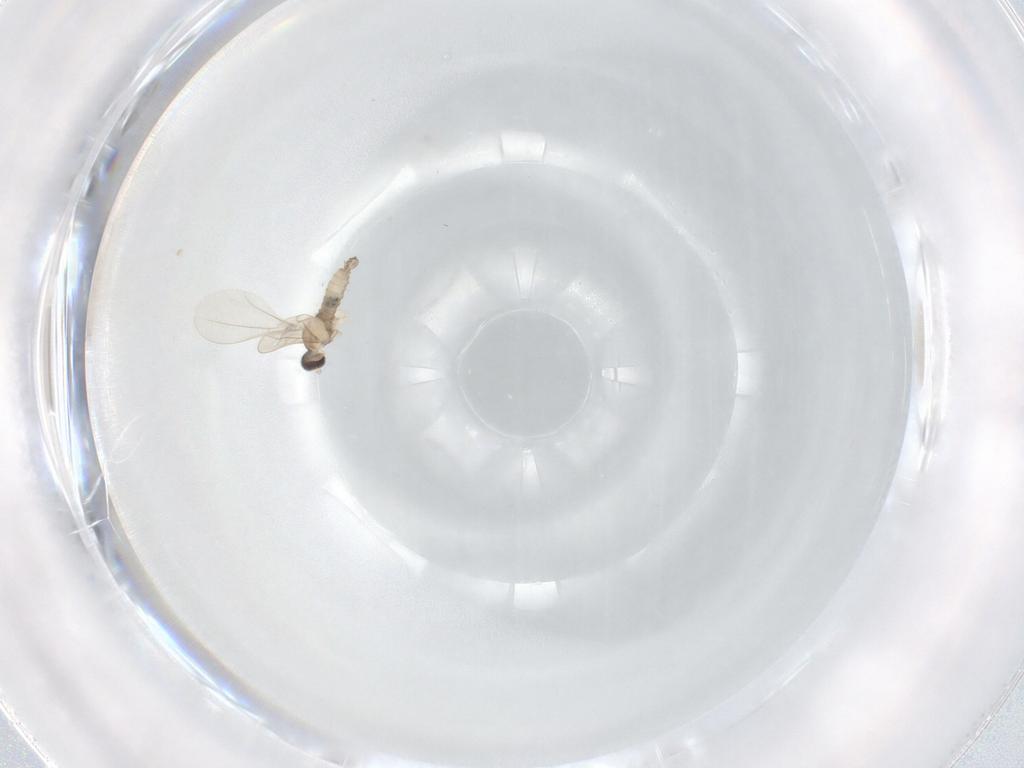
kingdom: Animalia
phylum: Arthropoda
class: Insecta
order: Diptera
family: Cecidomyiidae
